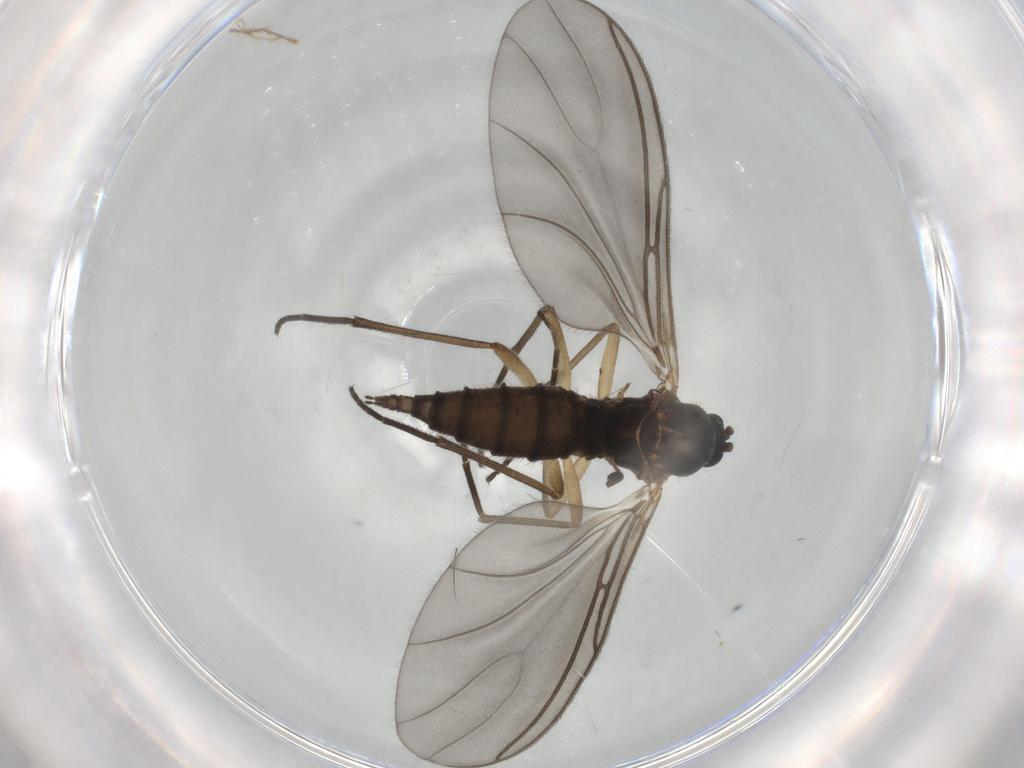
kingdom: Animalia
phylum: Arthropoda
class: Insecta
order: Diptera
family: Sciaridae
